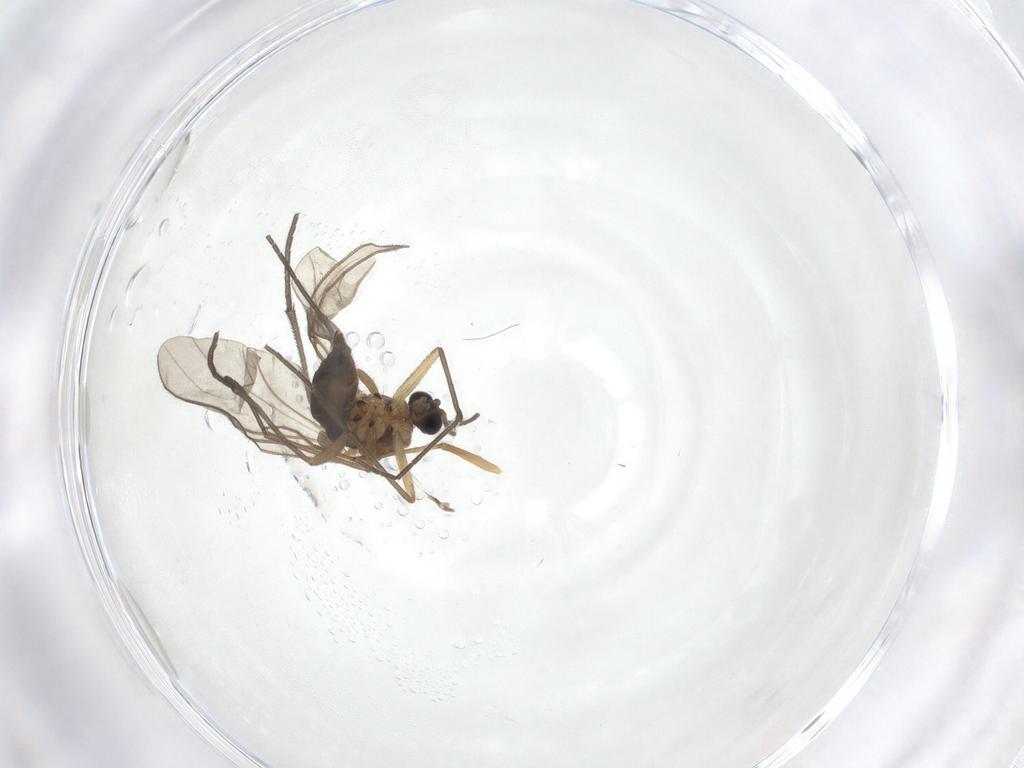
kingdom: Animalia
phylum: Arthropoda
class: Insecta
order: Diptera
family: Sciaridae
